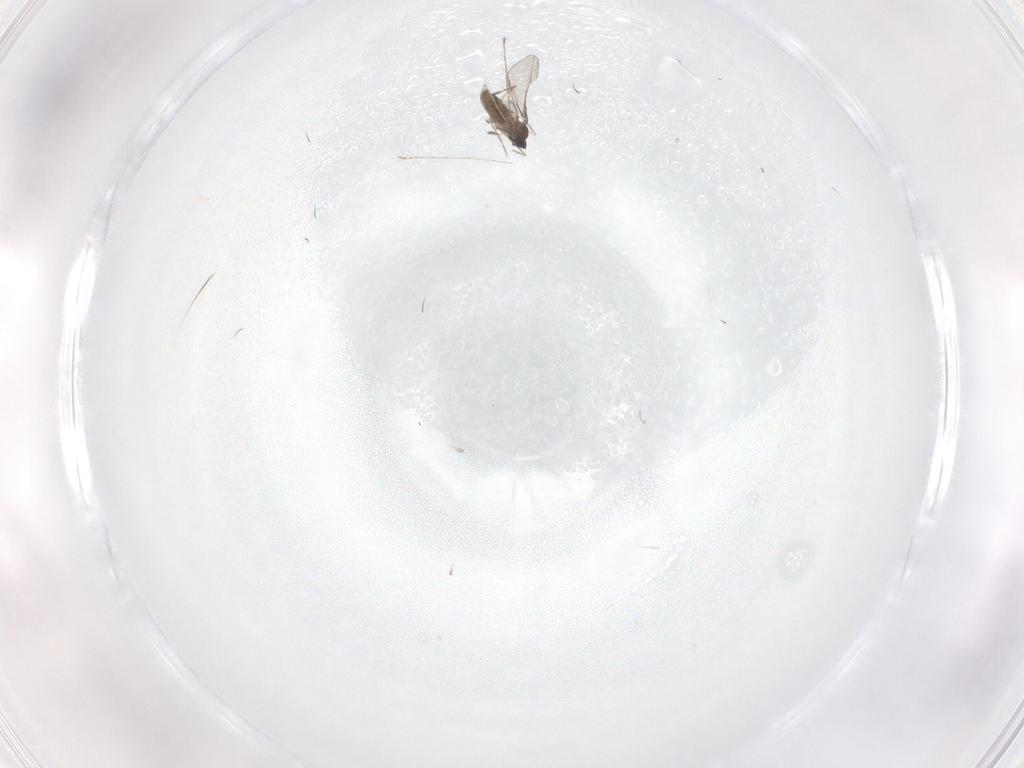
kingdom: Animalia
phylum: Arthropoda
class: Insecta
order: Diptera
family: Cecidomyiidae
